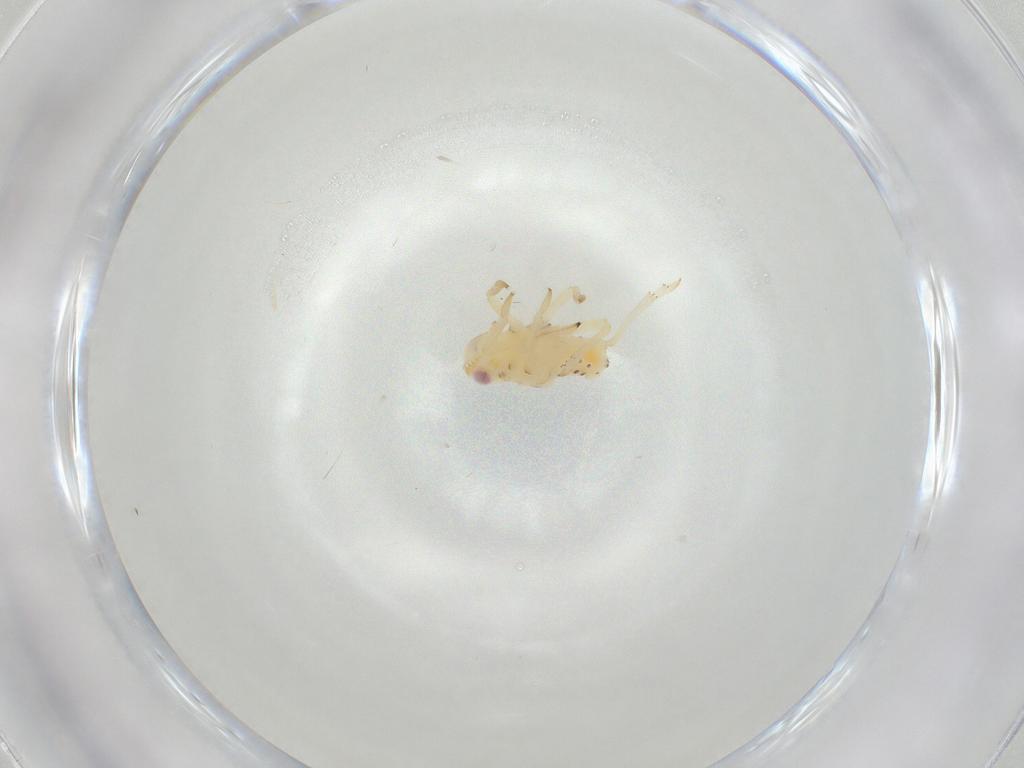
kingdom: Animalia
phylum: Arthropoda
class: Insecta
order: Hemiptera
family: Tropiduchidae
